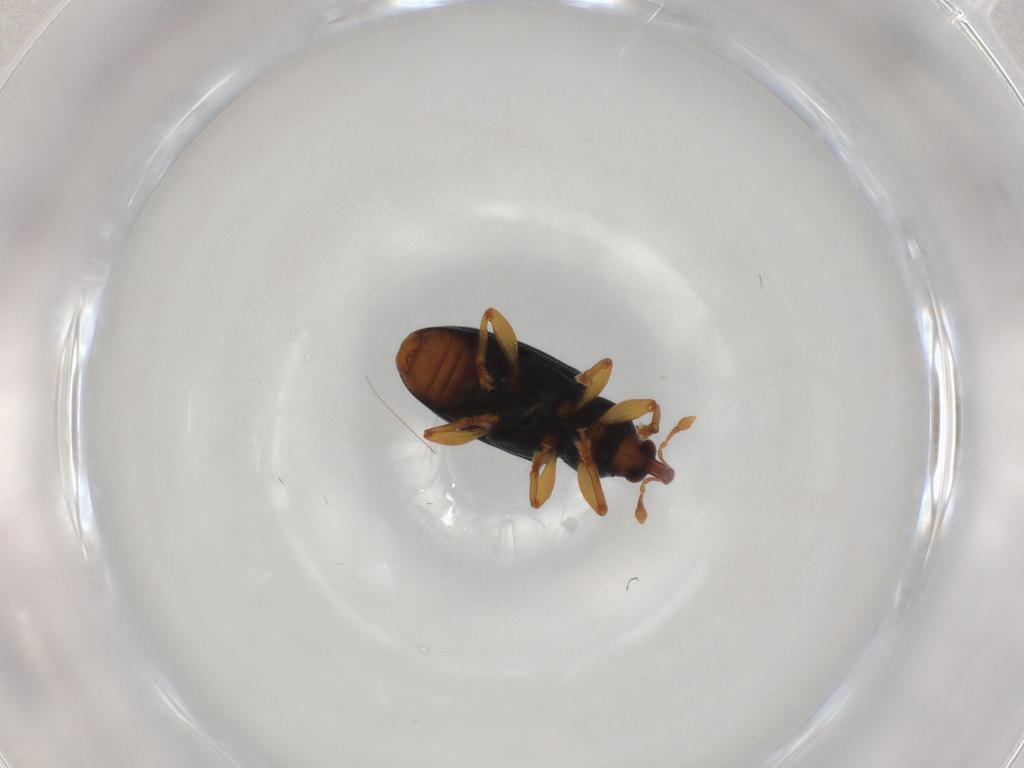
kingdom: Animalia
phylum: Arthropoda
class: Insecta
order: Coleoptera
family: Curculionidae
